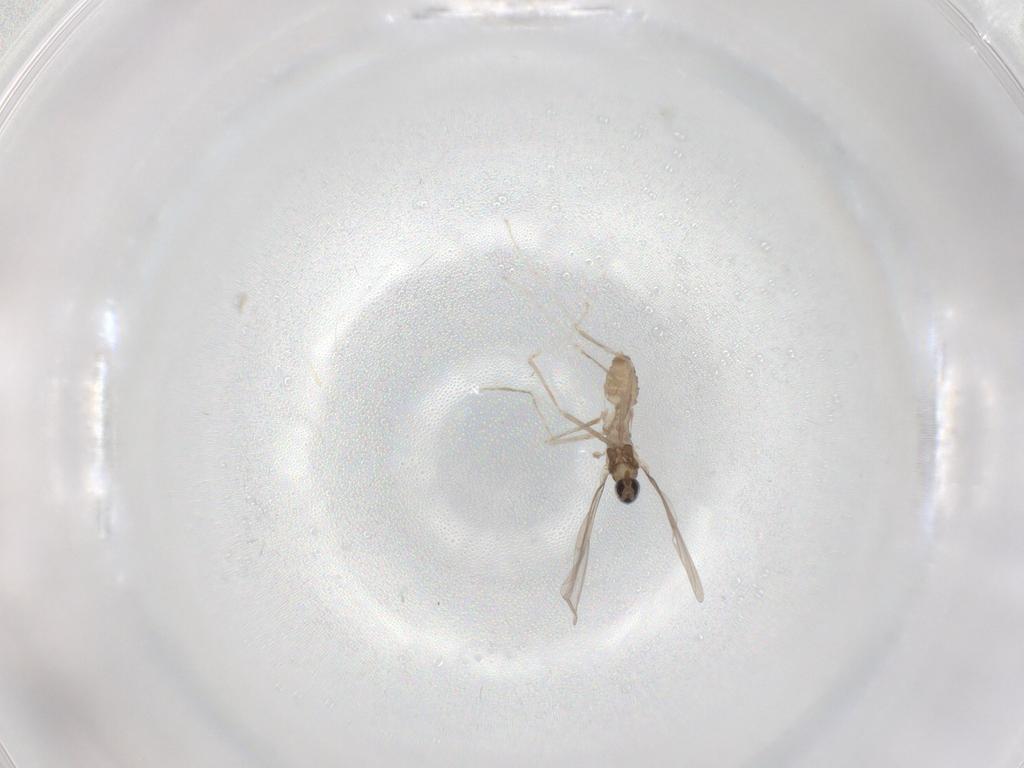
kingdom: Animalia
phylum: Arthropoda
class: Insecta
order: Diptera
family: Cecidomyiidae
